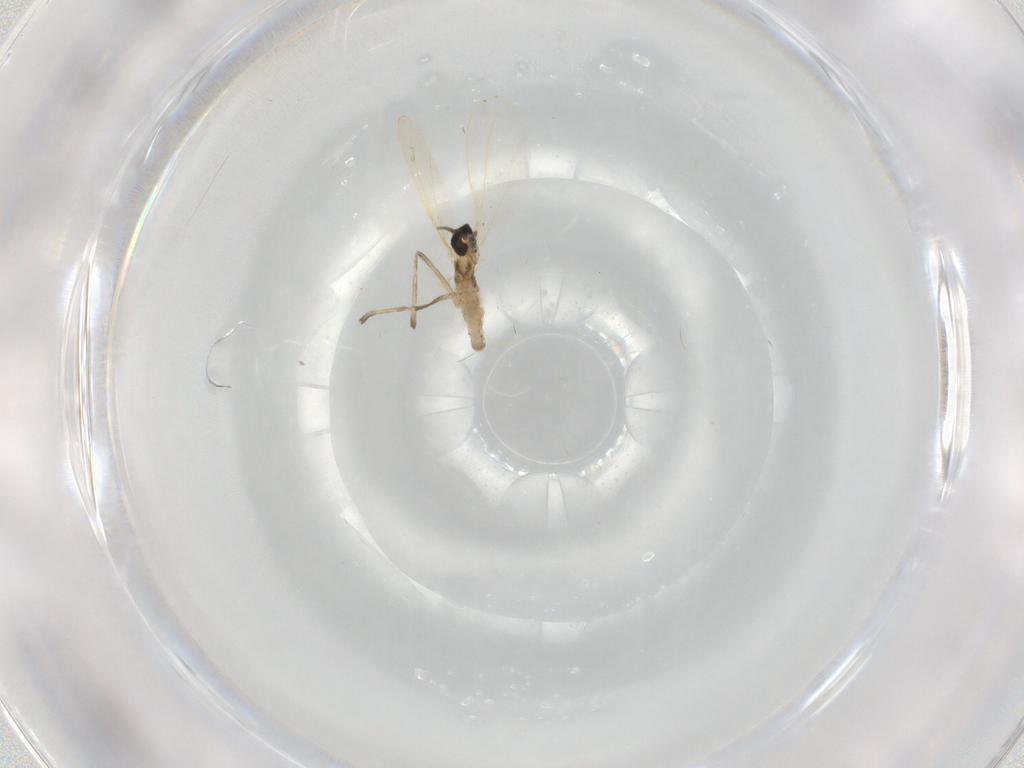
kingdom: Animalia
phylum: Arthropoda
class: Insecta
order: Diptera
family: Cecidomyiidae
